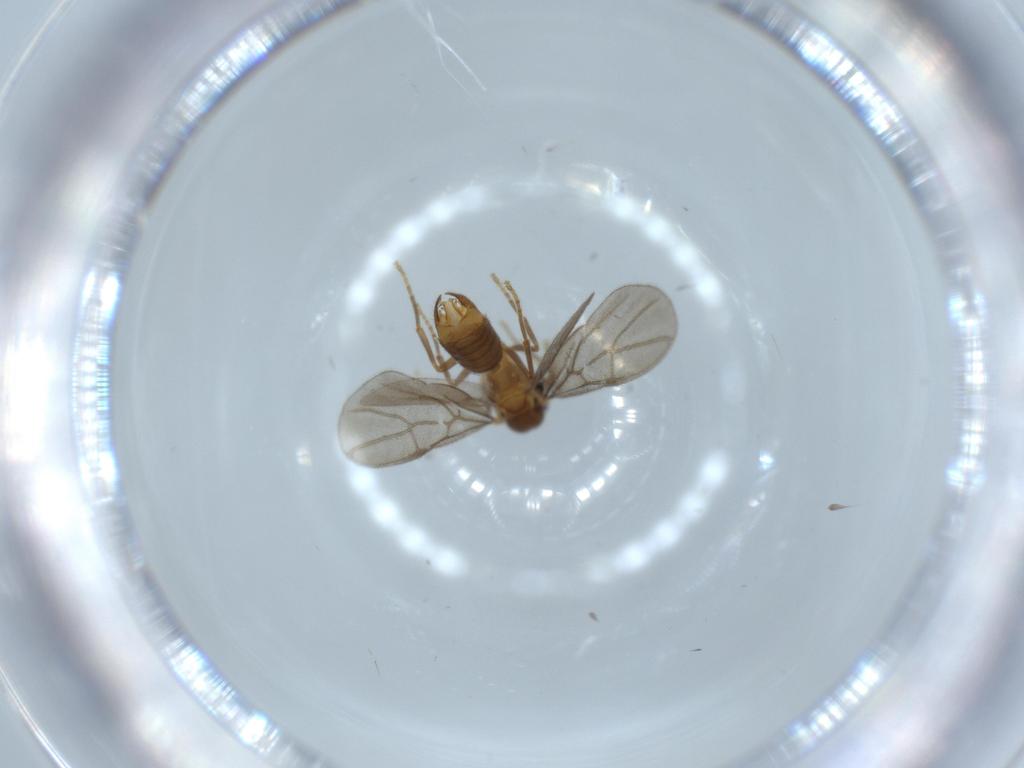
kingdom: Animalia
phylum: Arthropoda
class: Insecta
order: Hymenoptera
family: Formicidae
